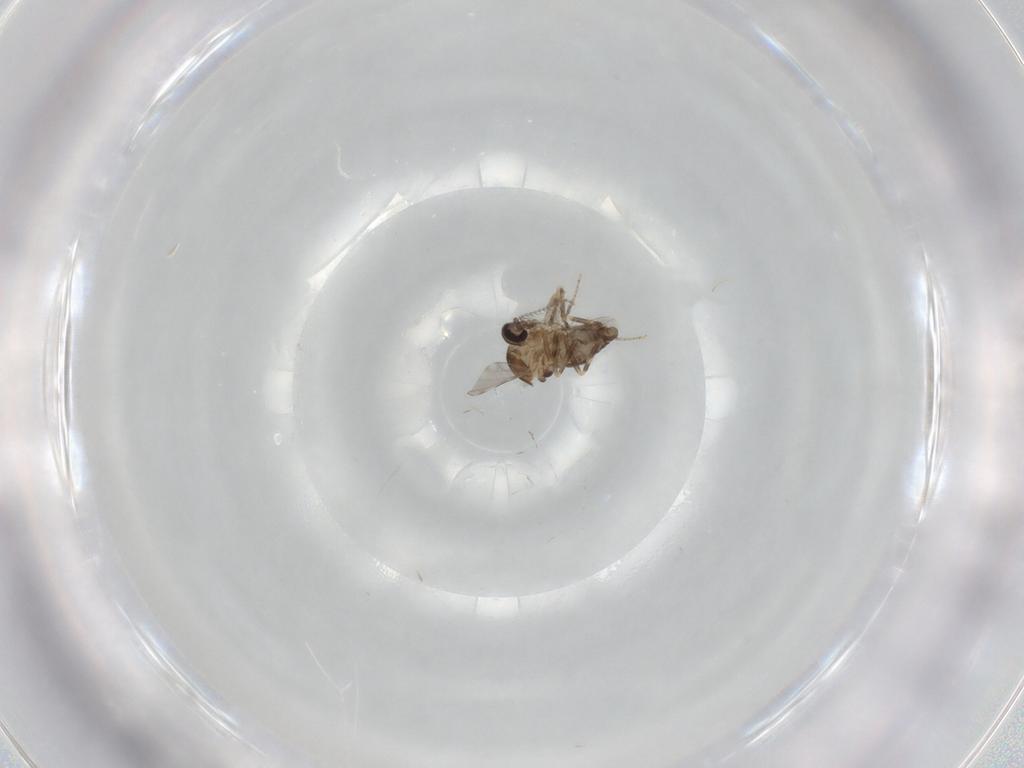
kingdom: Animalia
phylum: Arthropoda
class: Insecta
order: Diptera
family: Ceratopogonidae
